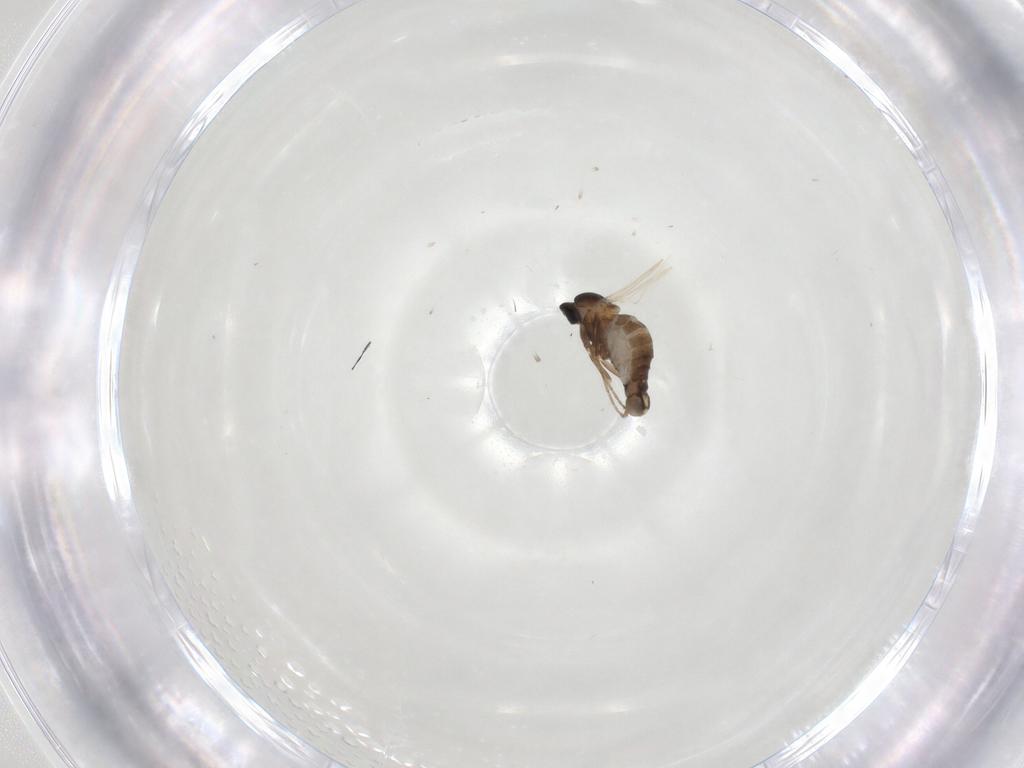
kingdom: Animalia
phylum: Arthropoda
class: Insecta
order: Diptera
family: Cecidomyiidae
